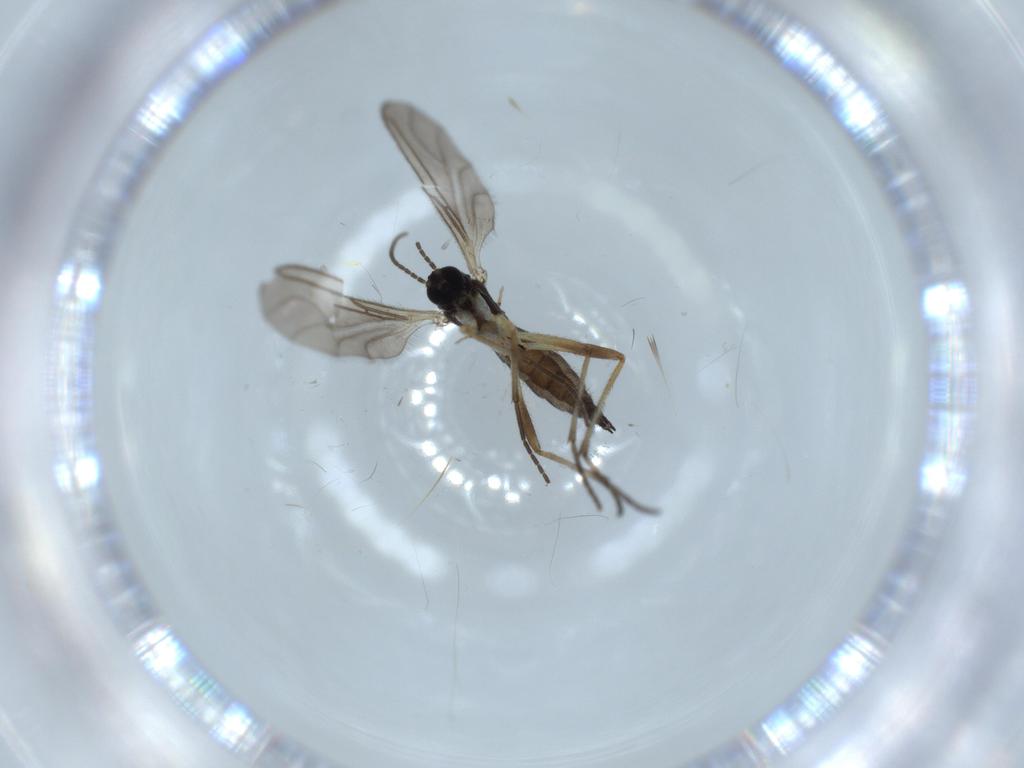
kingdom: Animalia
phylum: Arthropoda
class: Insecta
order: Diptera
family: Sciaridae
